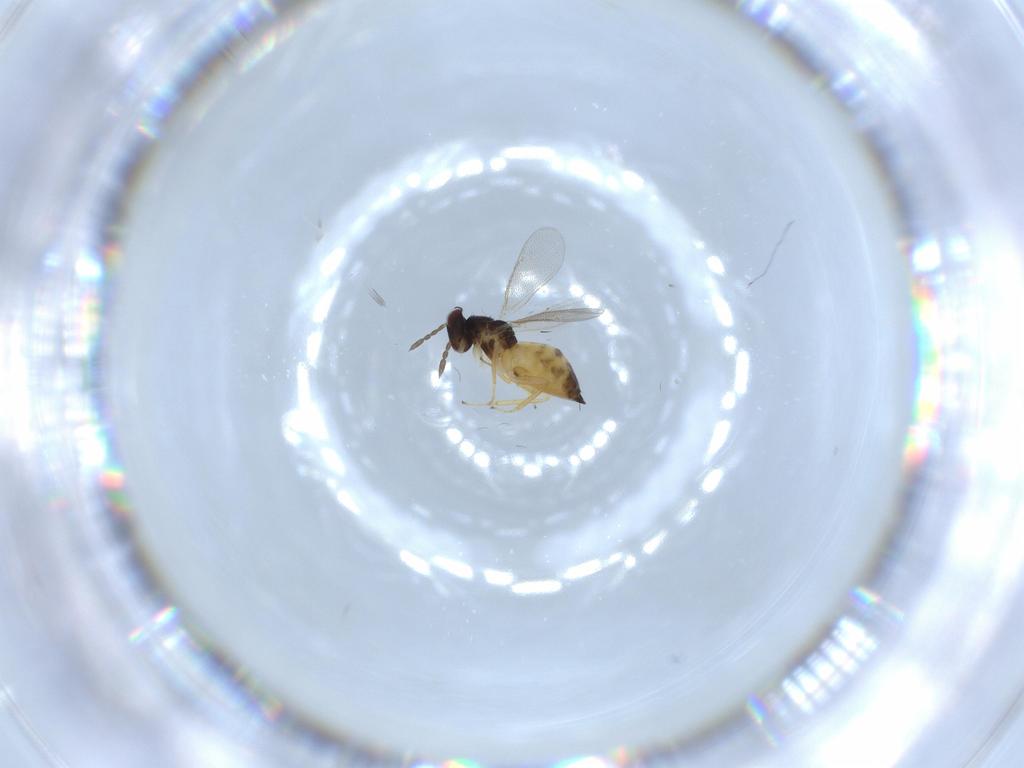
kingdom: Animalia
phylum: Arthropoda
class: Insecta
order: Hymenoptera
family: Eulophidae
